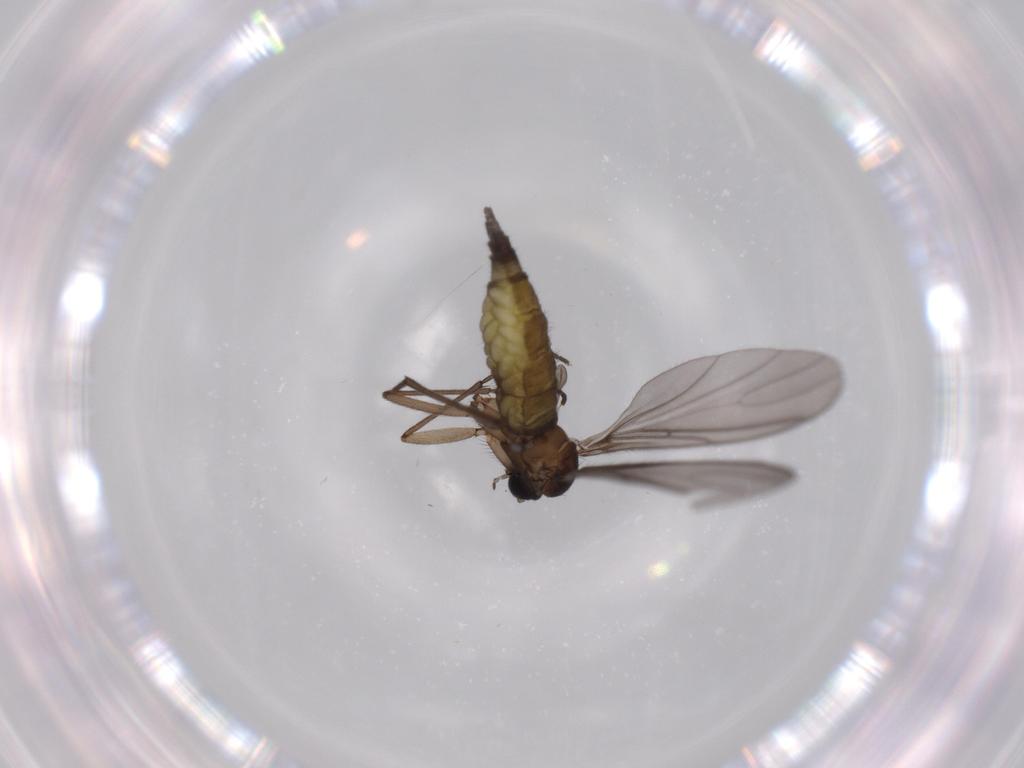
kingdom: Animalia
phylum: Arthropoda
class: Insecta
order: Diptera
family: Sciaridae
